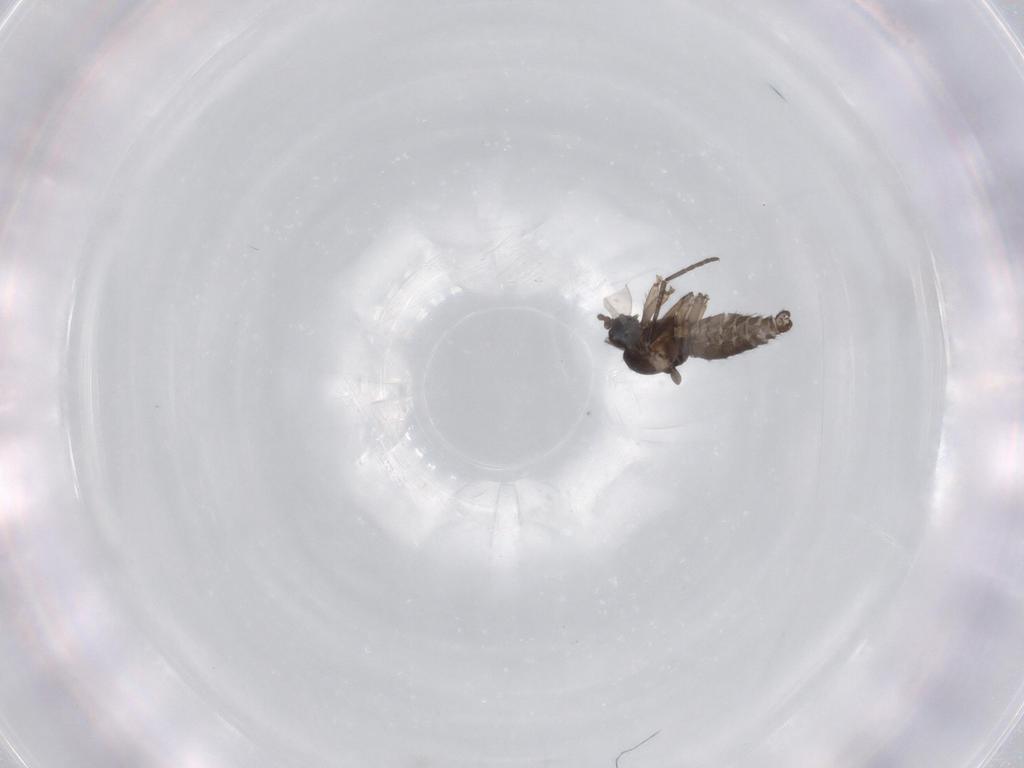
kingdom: Animalia
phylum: Arthropoda
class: Insecta
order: Diptera
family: Asilidae
